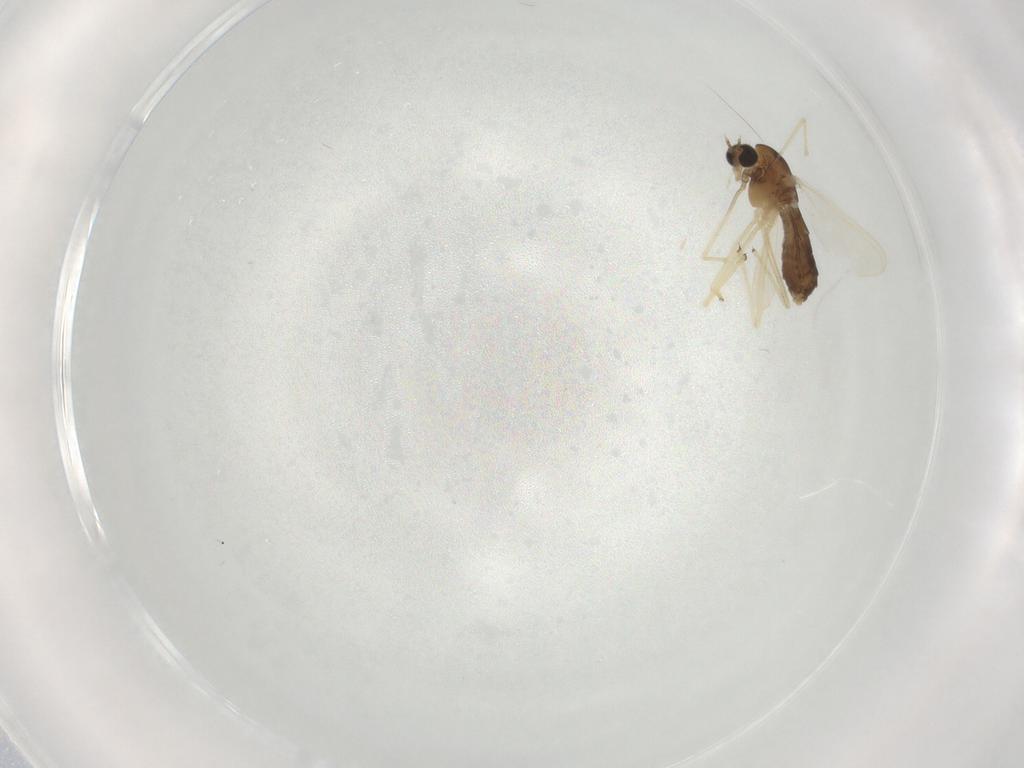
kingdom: Animalia
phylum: Arthropoda
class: Insecta
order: Diptera
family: Chironomidae
